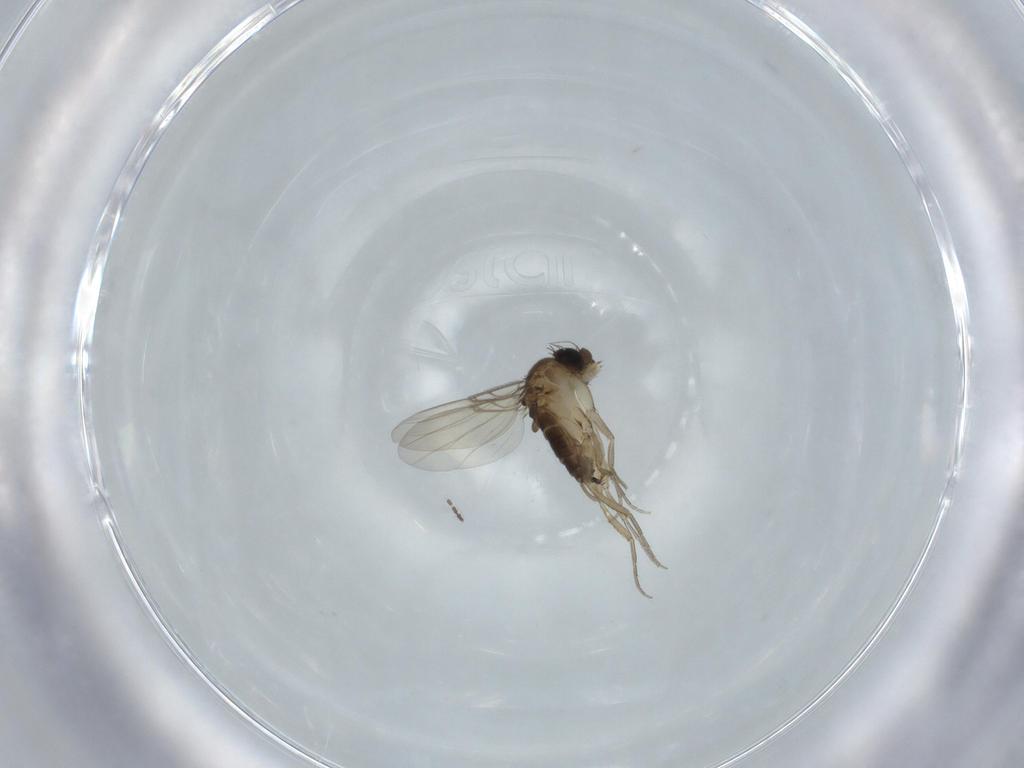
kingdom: Animalia
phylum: Arthropoda
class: Insecta
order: Diptera
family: Phoridae
